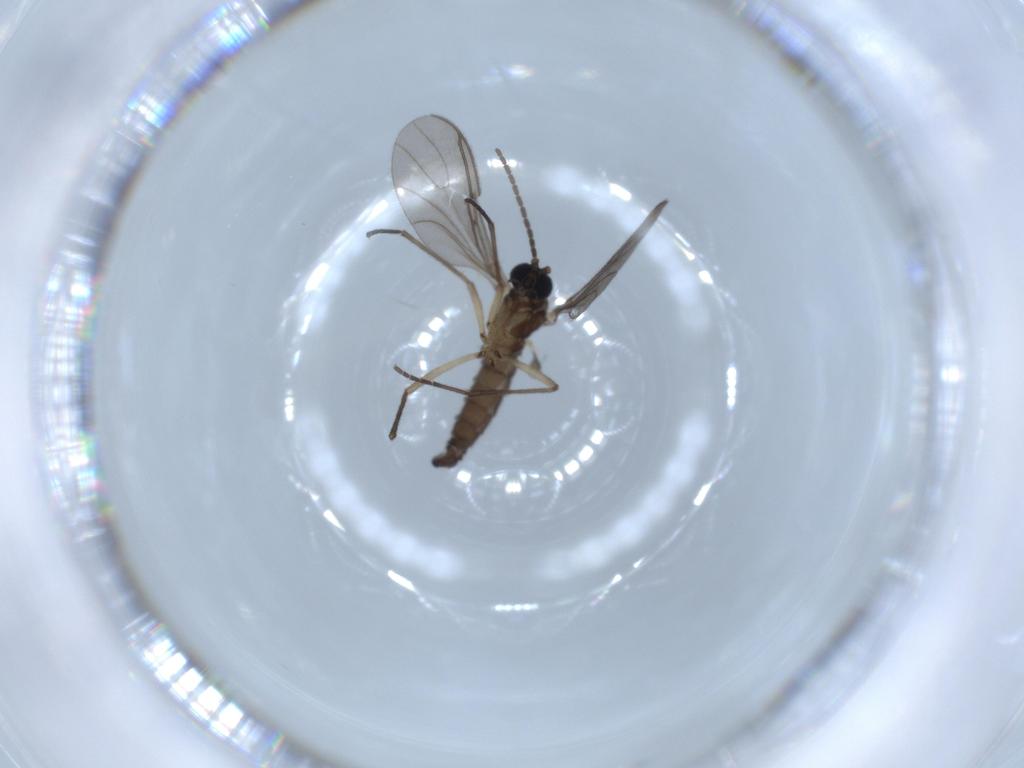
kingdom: Animalia
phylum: Arthropoda
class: Insecta
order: Diptera
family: Sciaridae
